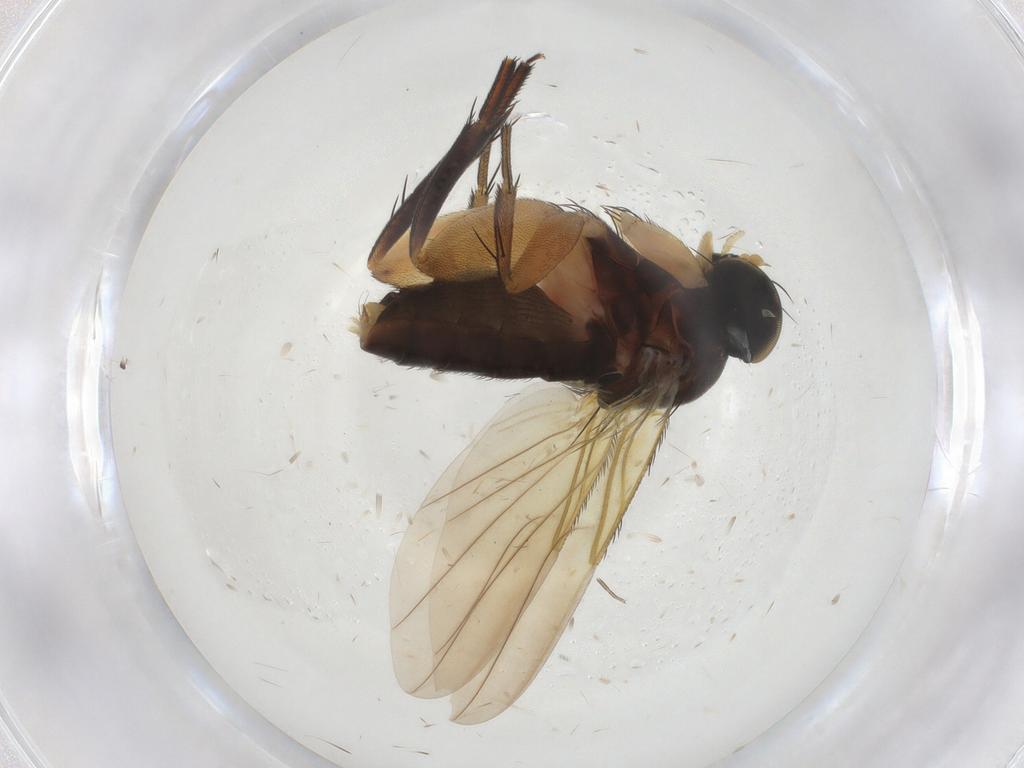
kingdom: Animalia
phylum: Arthropoda
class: Insecta
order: Diptera
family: Phoridae
